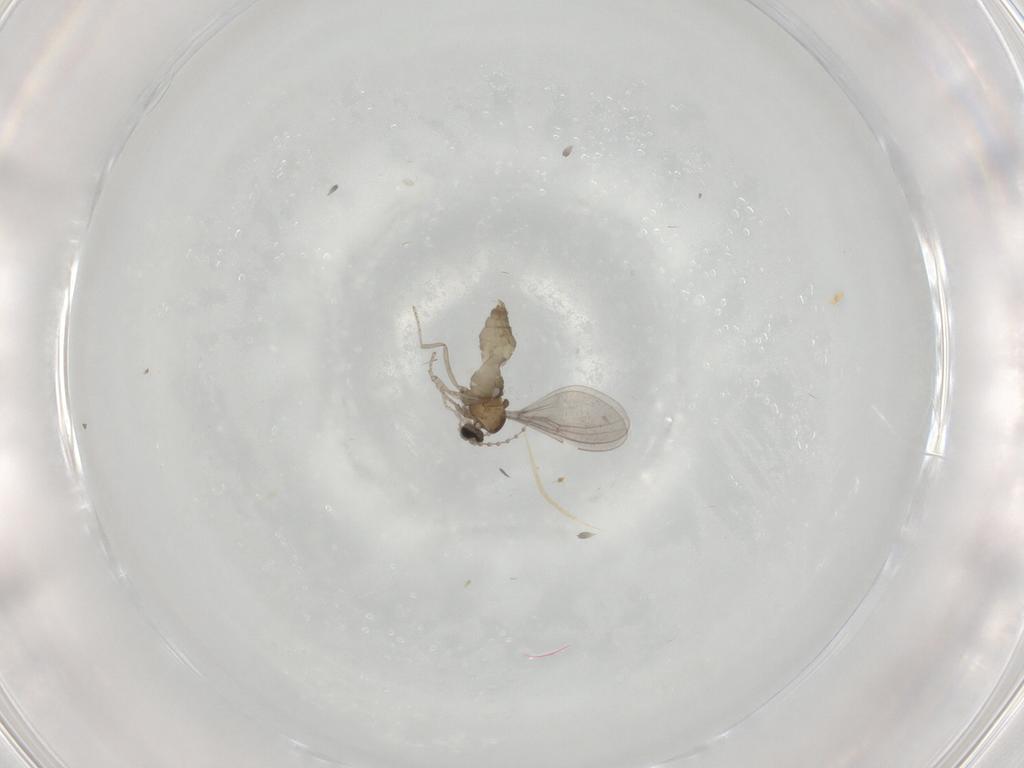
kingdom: Animalia
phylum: Arthropoda
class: Insecta
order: Diptera
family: Cecidomyiidae
